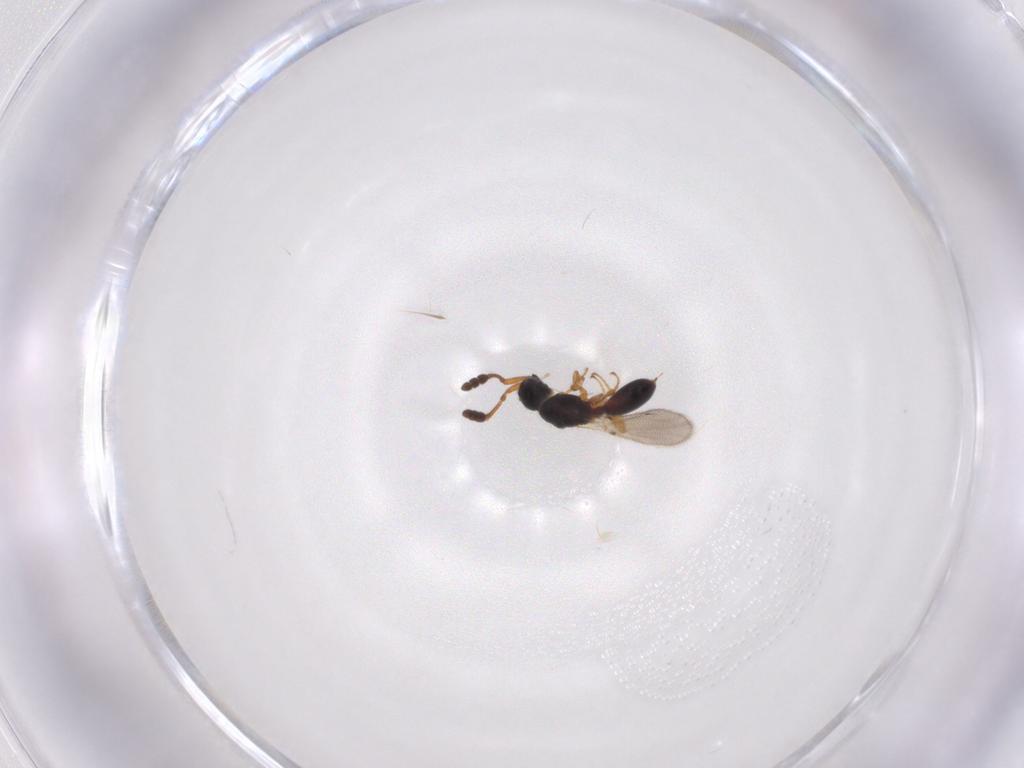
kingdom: Animalia
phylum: Arthropoda
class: Insecta
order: Hymenoptera
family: Diapriidae
